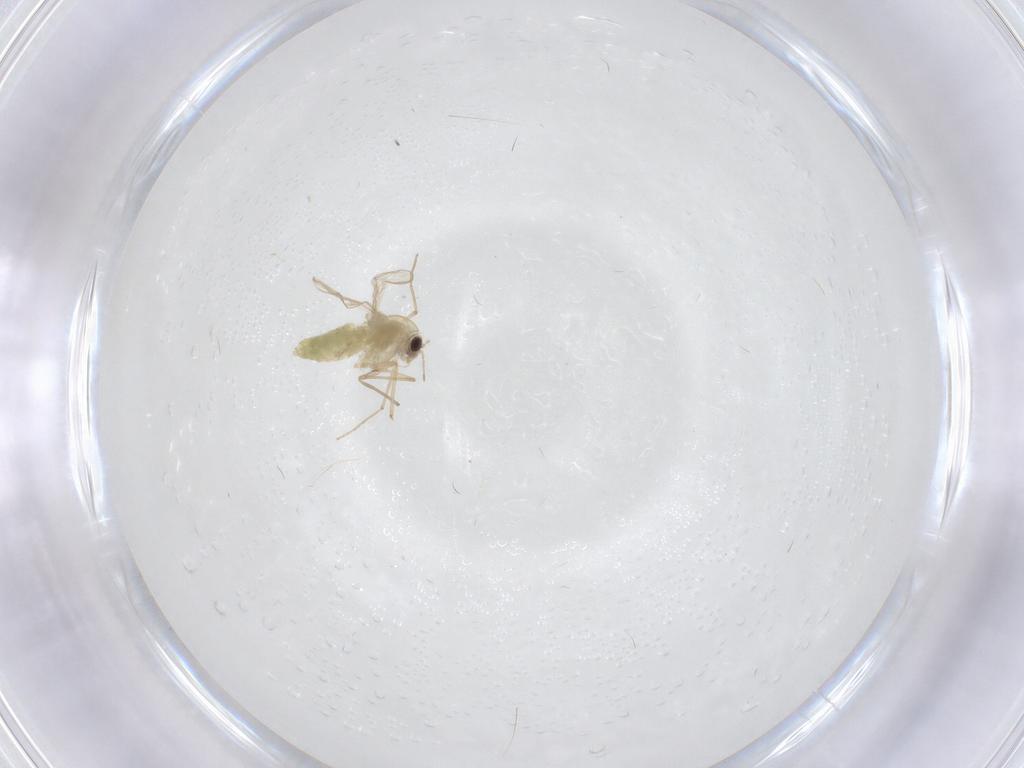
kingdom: Animalia
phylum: Arthropoda
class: Insecta
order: Diptera
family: Chironomidae
